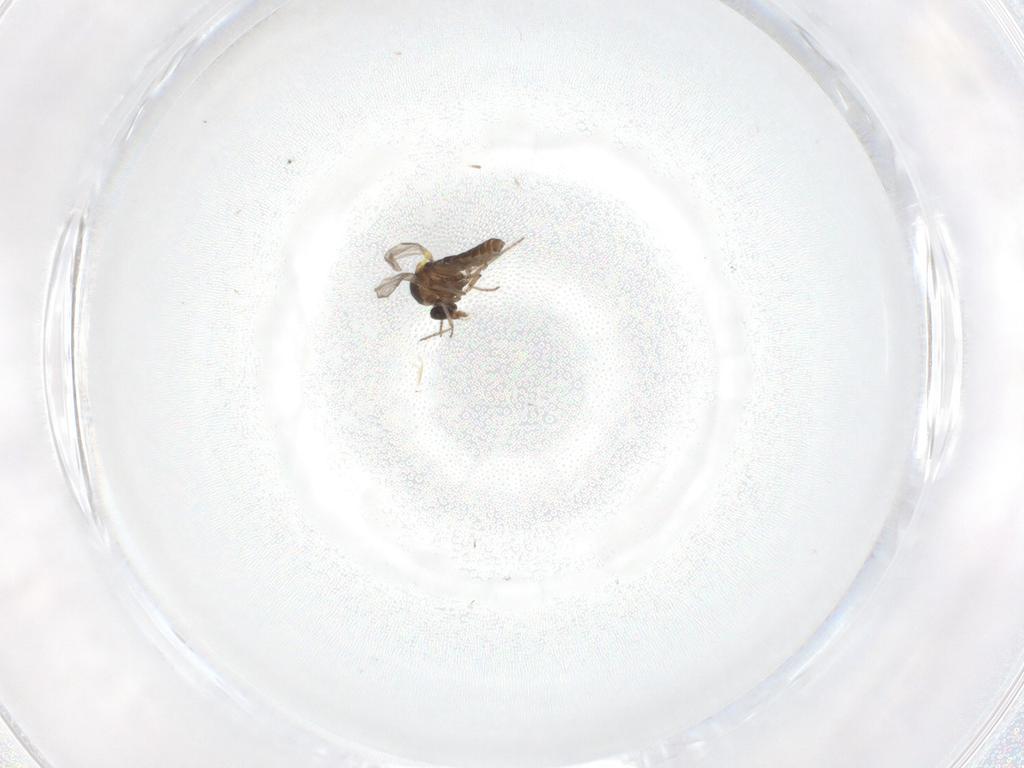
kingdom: Animalia
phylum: Arthropoda
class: Insecta
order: Diptera
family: Ceratopogonidae
